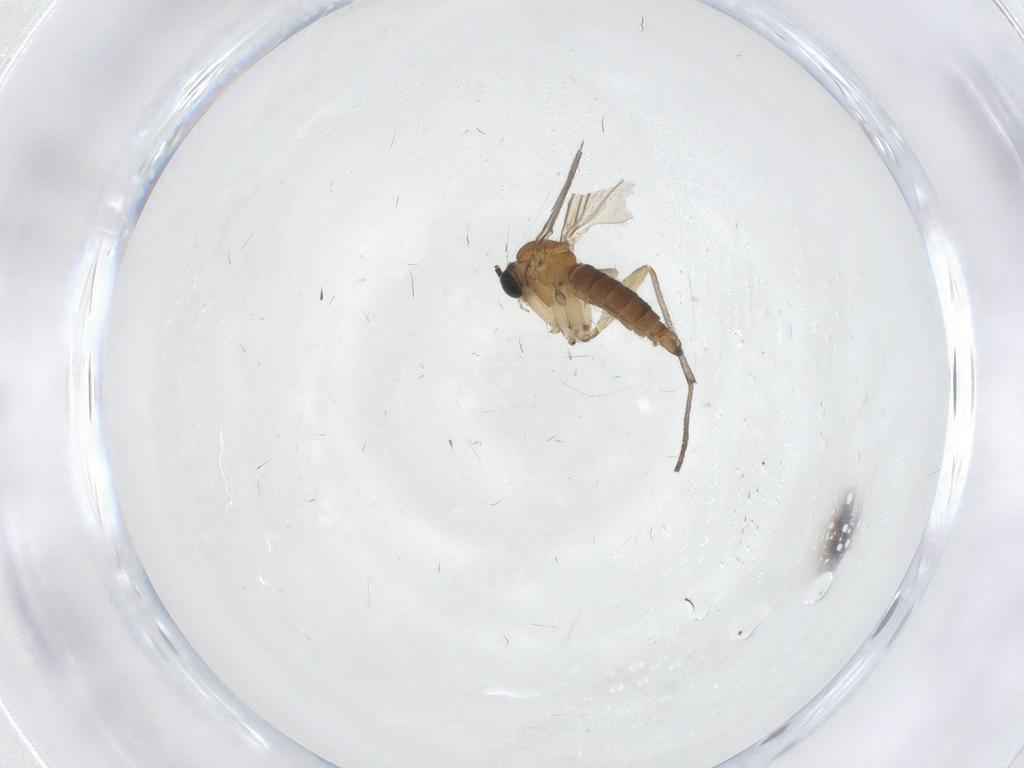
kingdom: Animalia
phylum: Arthropoda
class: Insecta
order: Diptera
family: Sciaridae
